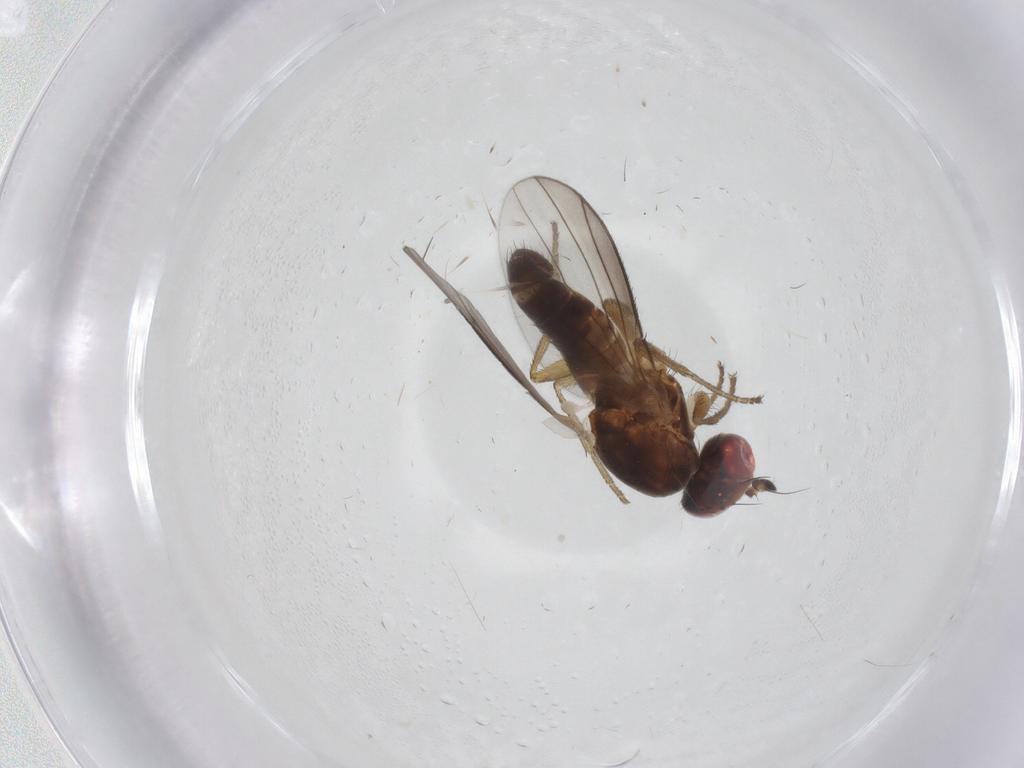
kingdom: Animalia
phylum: Arthropoda
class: Insecta
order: Diptera
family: Heleomyzidae
